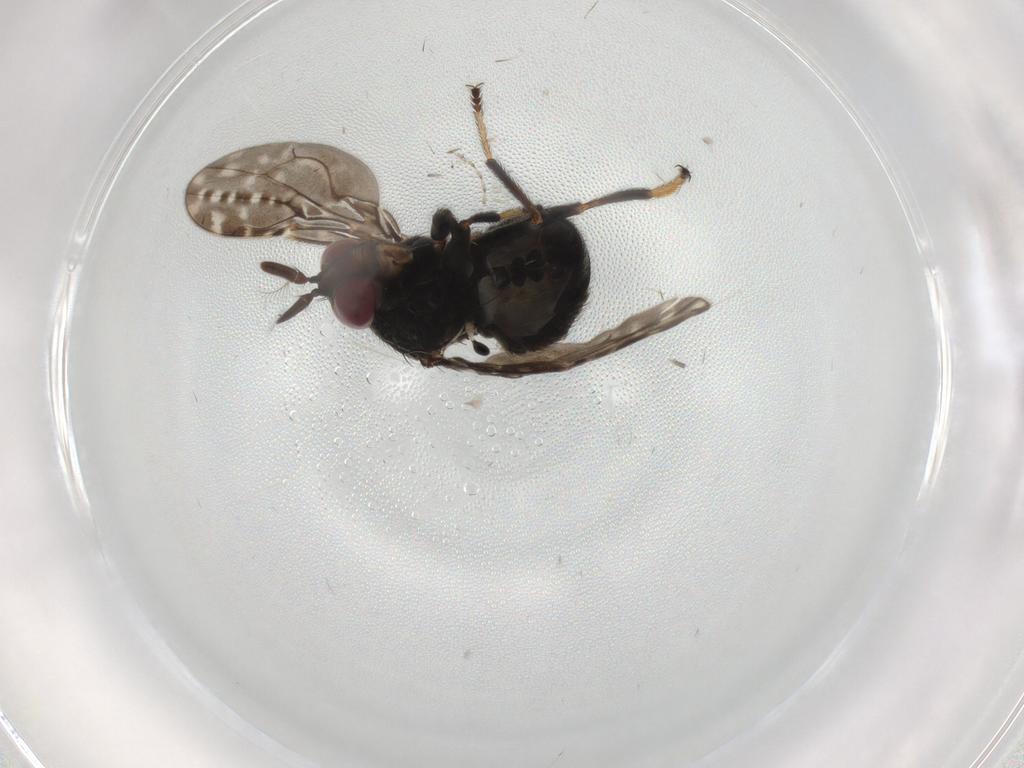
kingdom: Animalia
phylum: Arthropoda
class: Insecta
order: Diptera
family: Ephydridae
